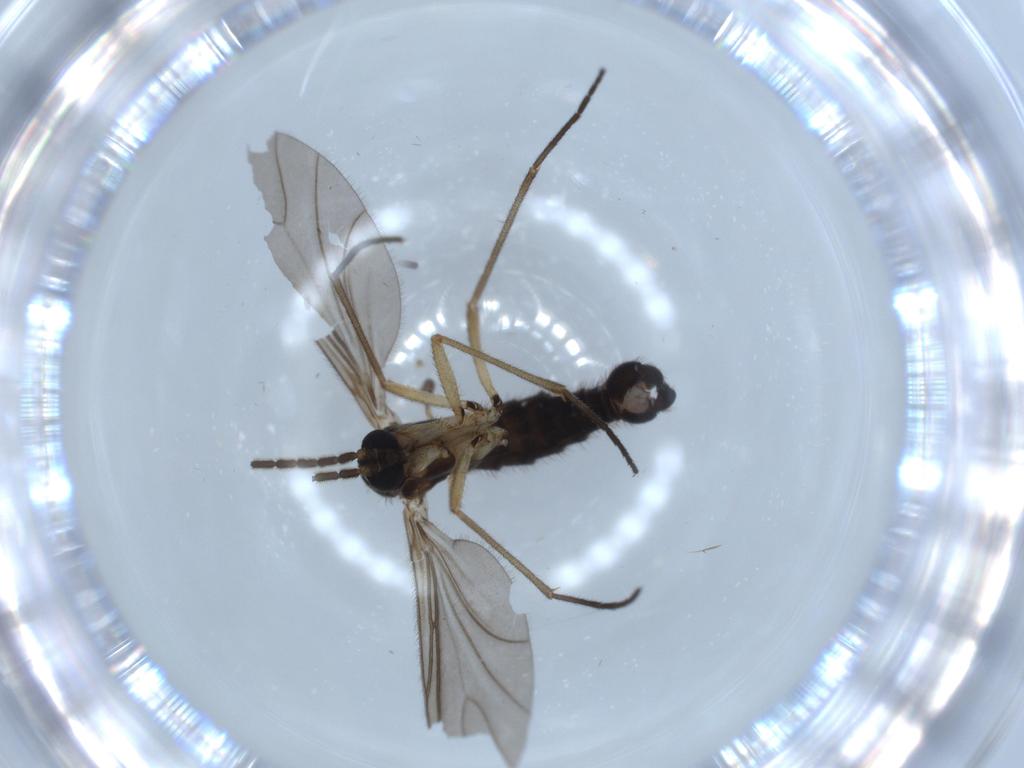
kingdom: Animalia
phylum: Arthropoda
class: Insecta
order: Diptera
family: Sciaridae
